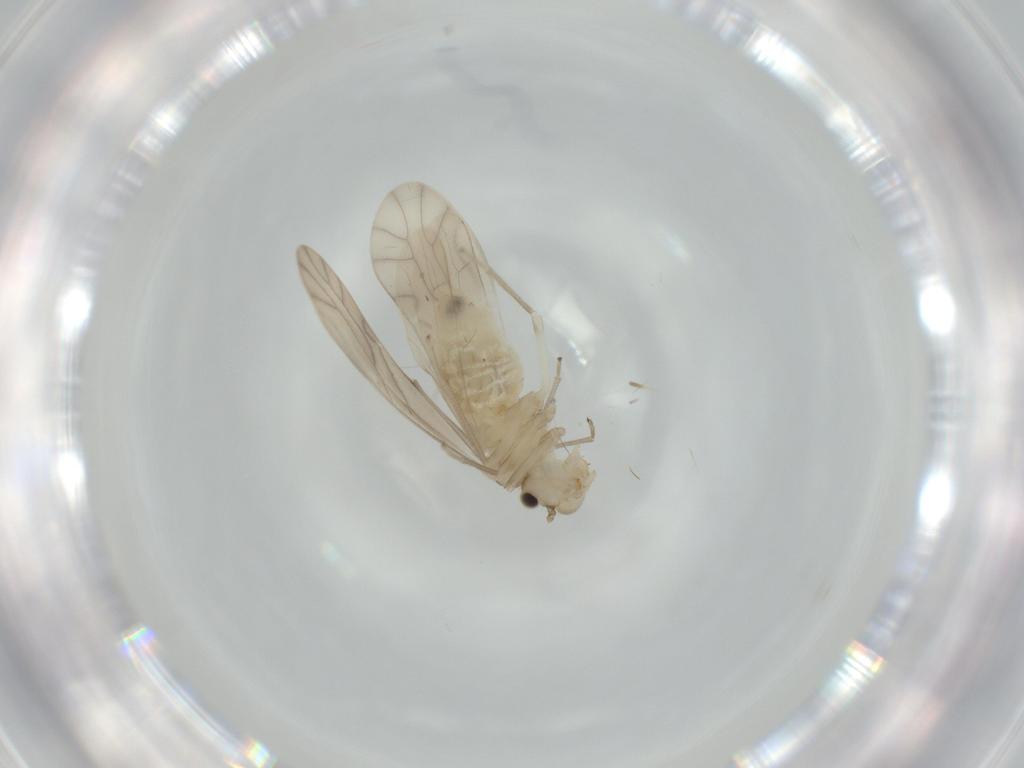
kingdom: Animalia
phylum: Arthropoda
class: Insecta
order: Psocodea
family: Caeciliusidae
